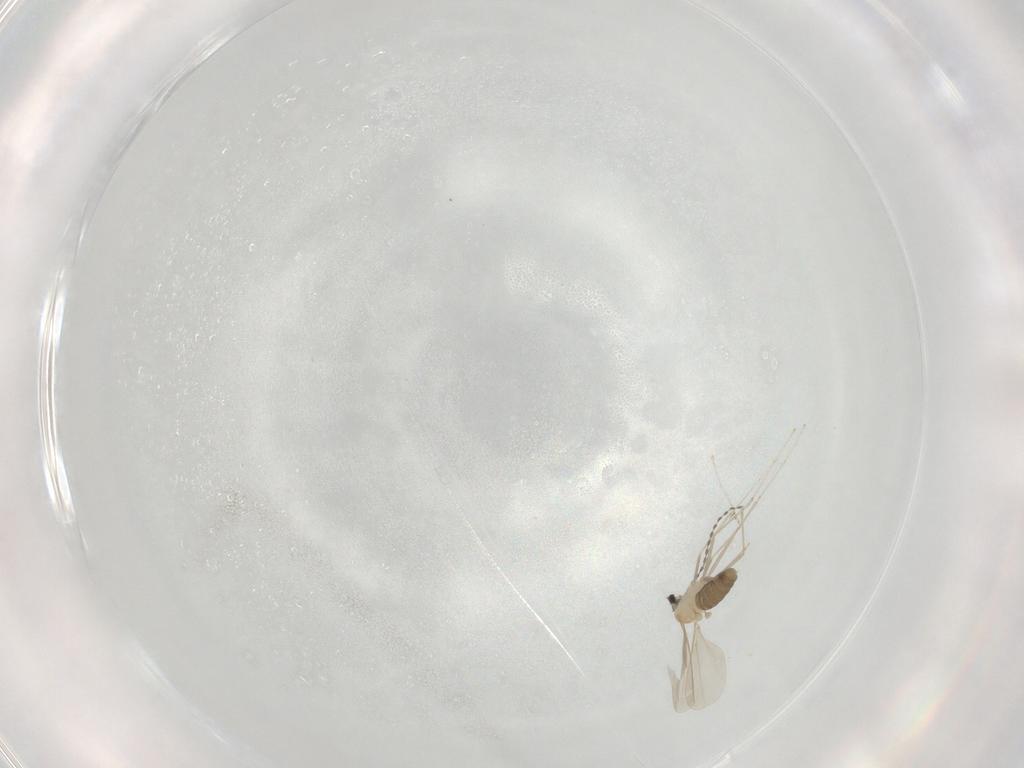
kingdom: Animalia
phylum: Arthropoda
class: Insecta
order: Diptera
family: Cecidomyiidae
